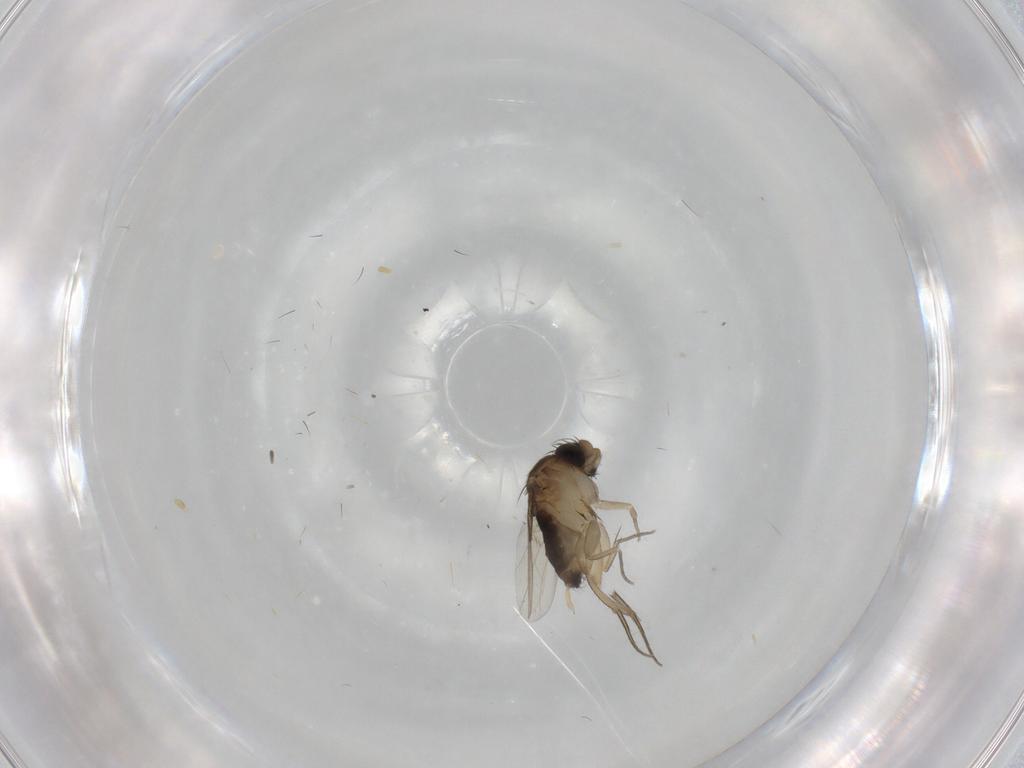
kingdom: Animalia
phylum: Arthropoda
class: Insecta
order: Diptera
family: Phoridae
